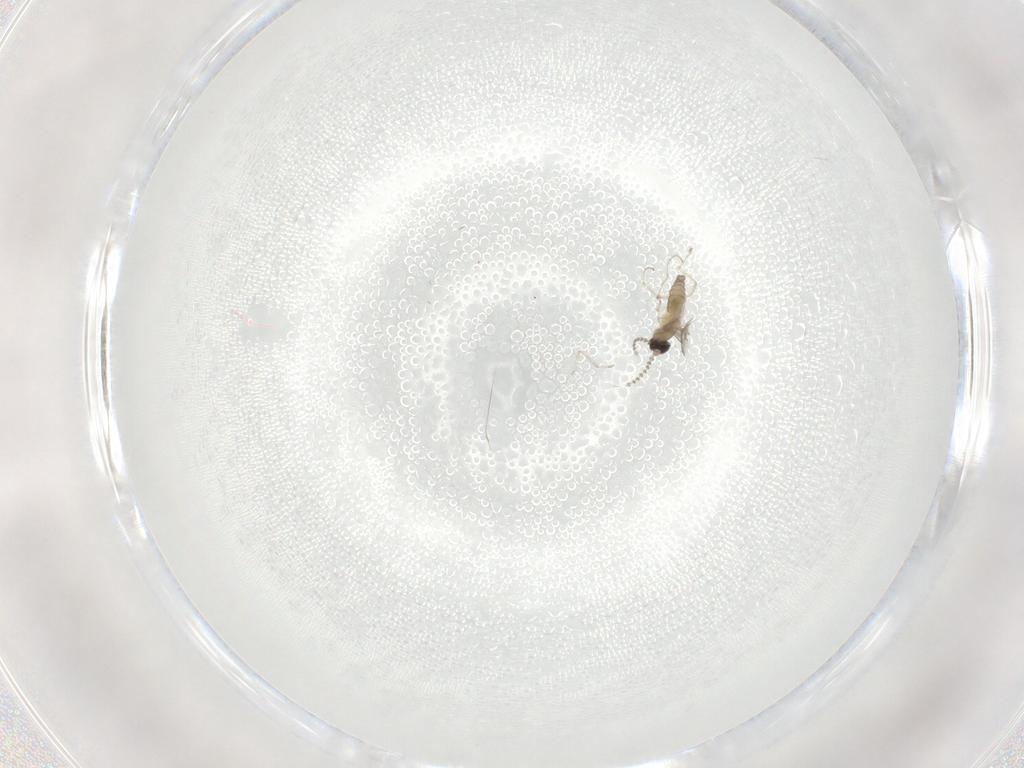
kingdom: Animalia
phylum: Arthropoda
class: Insecta
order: Diptera
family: Cecidomyiidae
